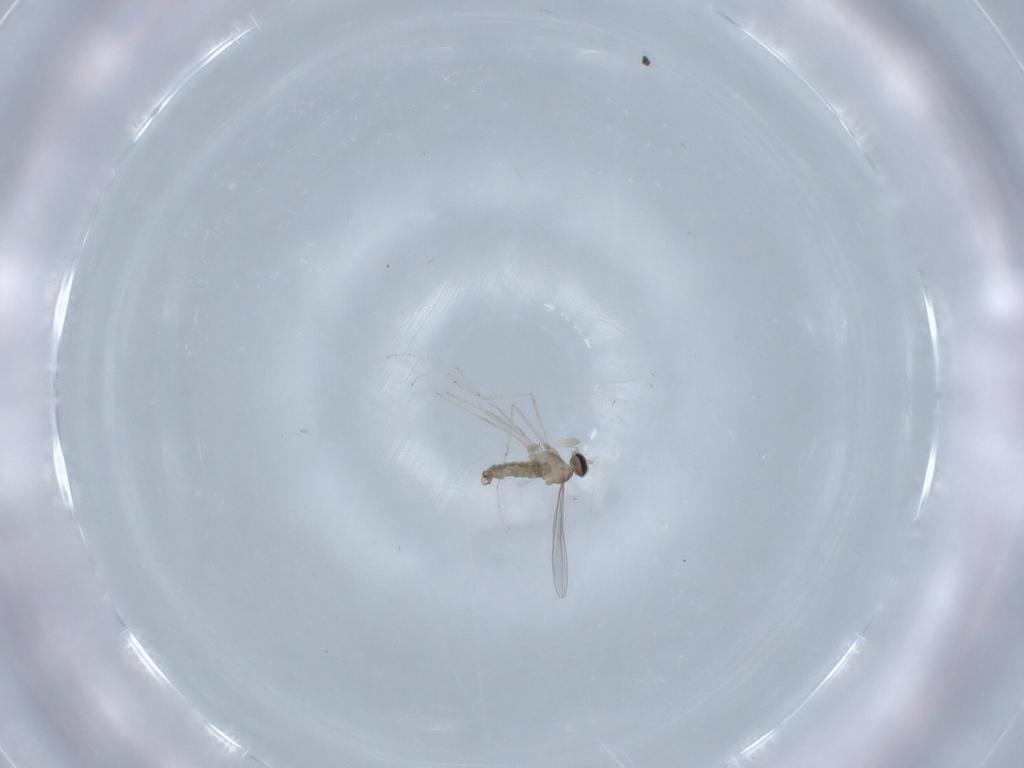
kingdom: Animalia
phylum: Arthropoda
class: Insecta
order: Diptera
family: Cecidomyiidae
